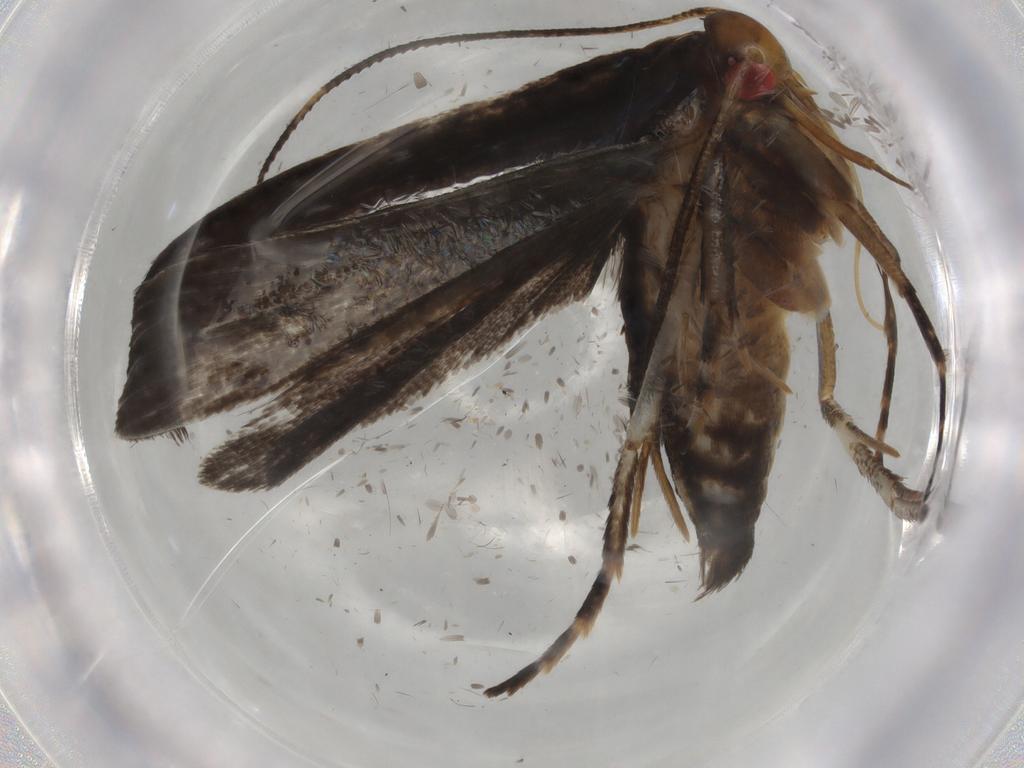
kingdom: Animalia
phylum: Arthropoda
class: Insecta
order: Lepidoptera
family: Gelechiidae
